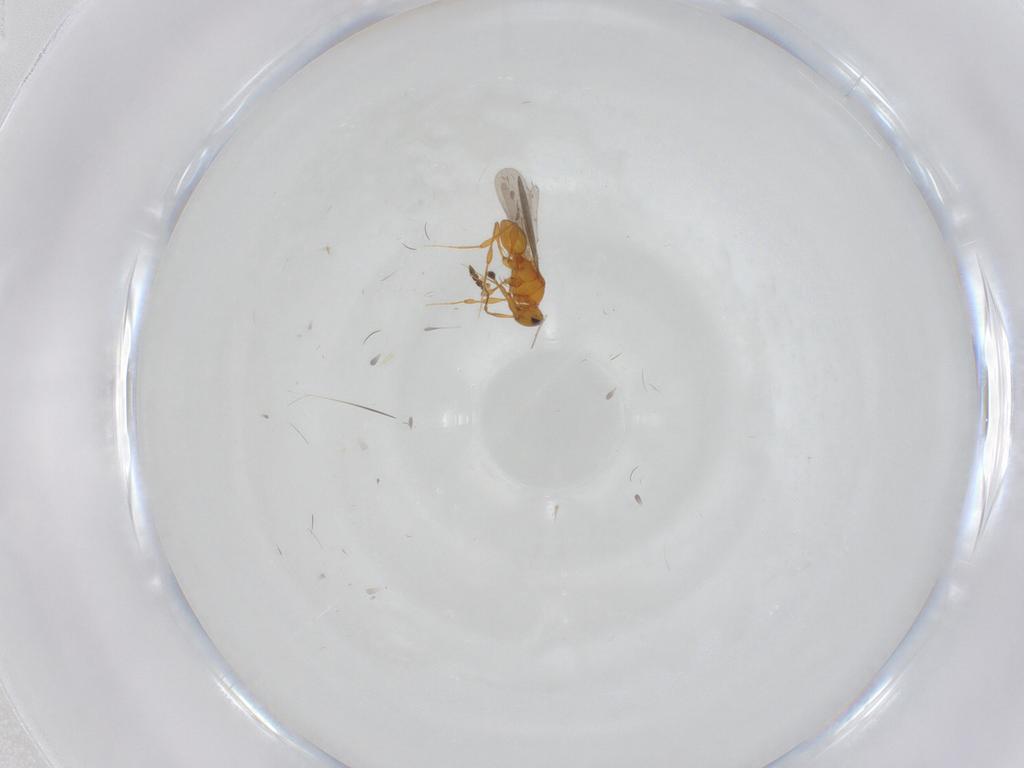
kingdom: Animalia
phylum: Arthropoda
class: Insecta
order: Hymenoptera
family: Platygastridae
